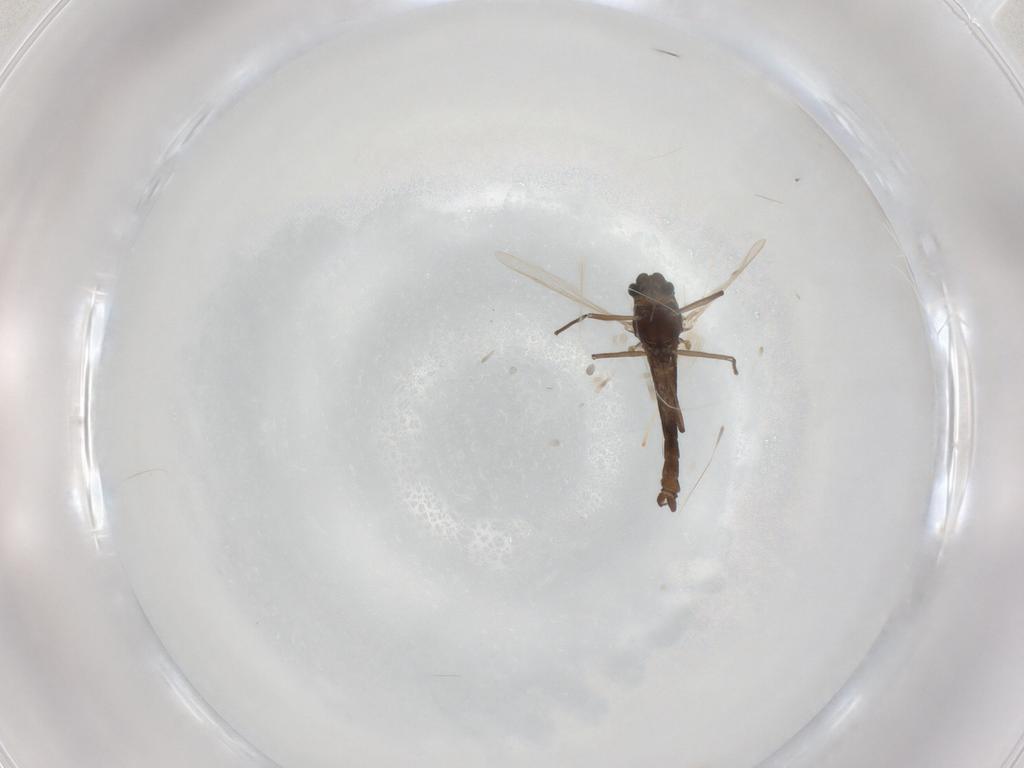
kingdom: Animalia
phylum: Arthropoda
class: Insecta
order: Diptera
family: Chironomidae
